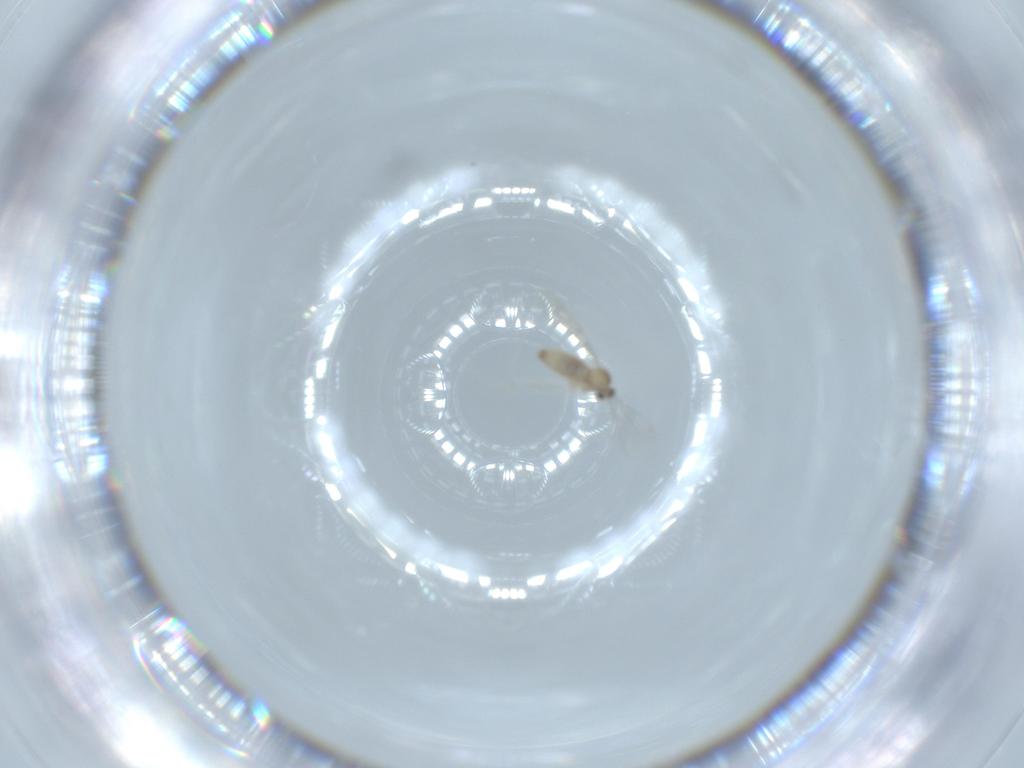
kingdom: Animalia
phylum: Arthropoda
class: Insecta
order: Diptera
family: Cecidomyiidae
